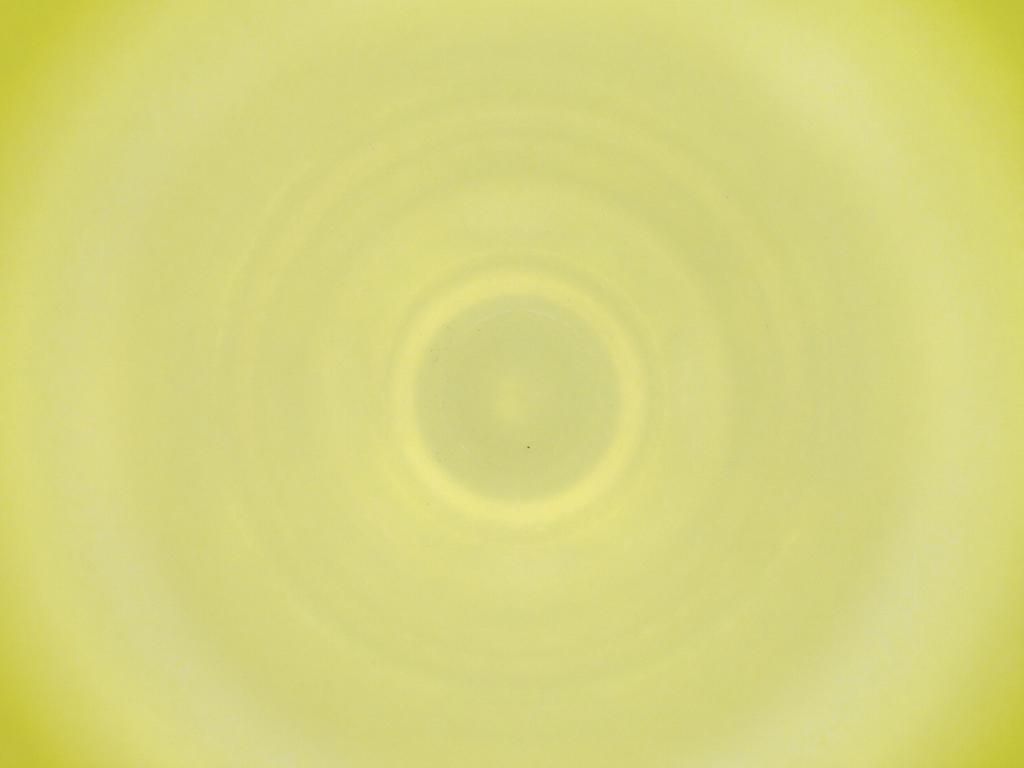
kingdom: Animalia
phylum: Arthropoda
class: Insecta
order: Diptera
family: Cecidomyiidae
